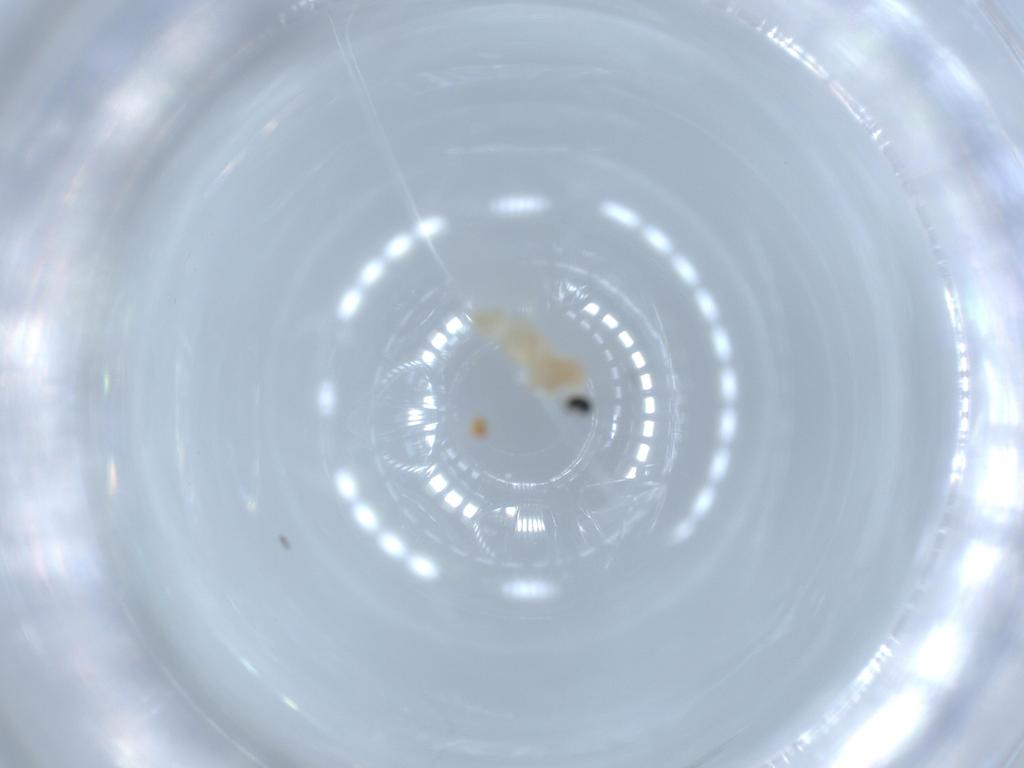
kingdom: Animalia
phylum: Arthropoda
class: Insecta
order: Diptera
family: Cecidomyiidae
